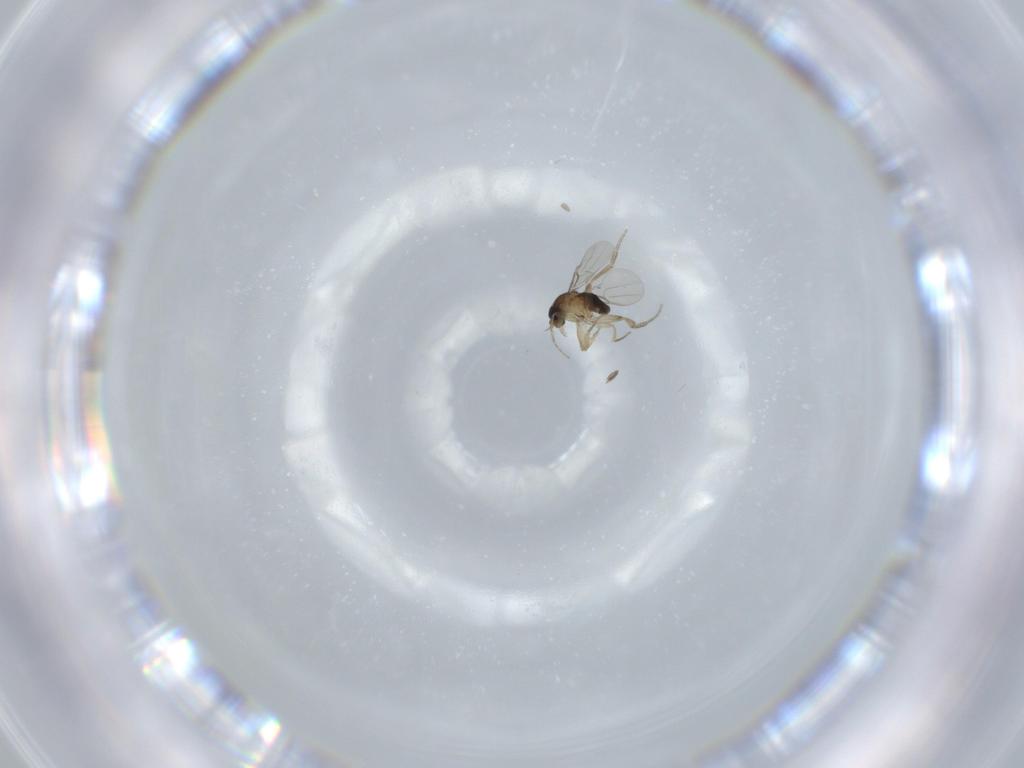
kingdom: Animalia
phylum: Arthropoda
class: Insecta
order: Diptera
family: Phoridae
